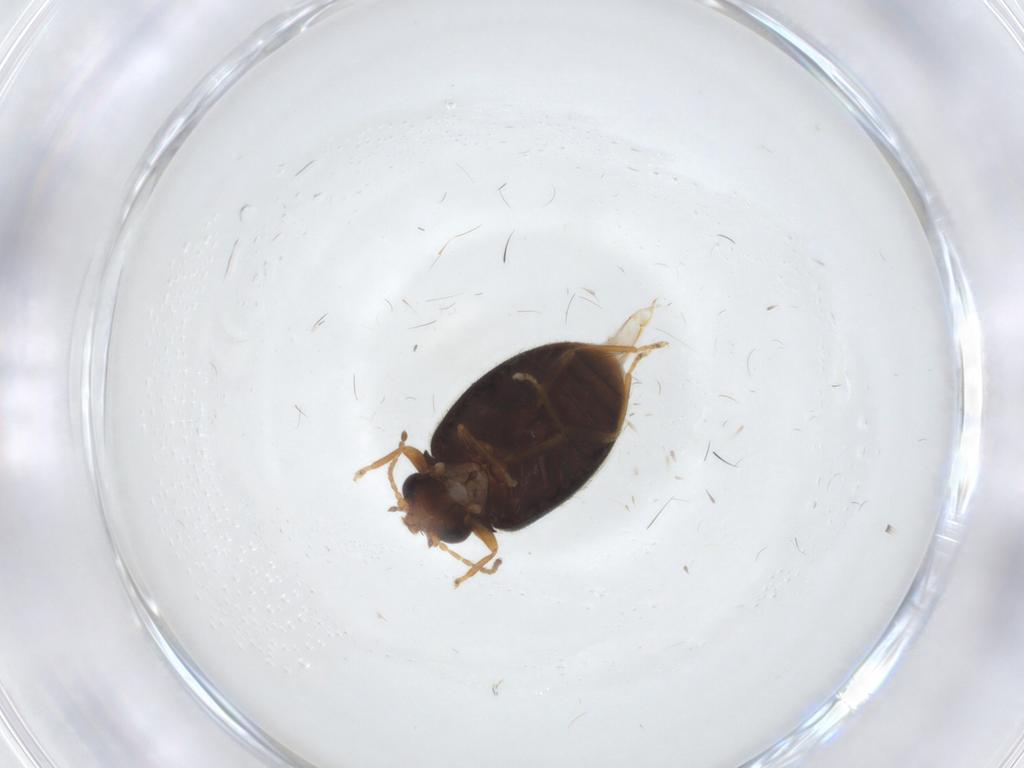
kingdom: Animalia
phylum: Arthropoda
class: Insecta
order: Coleoptera
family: Scirtidae
